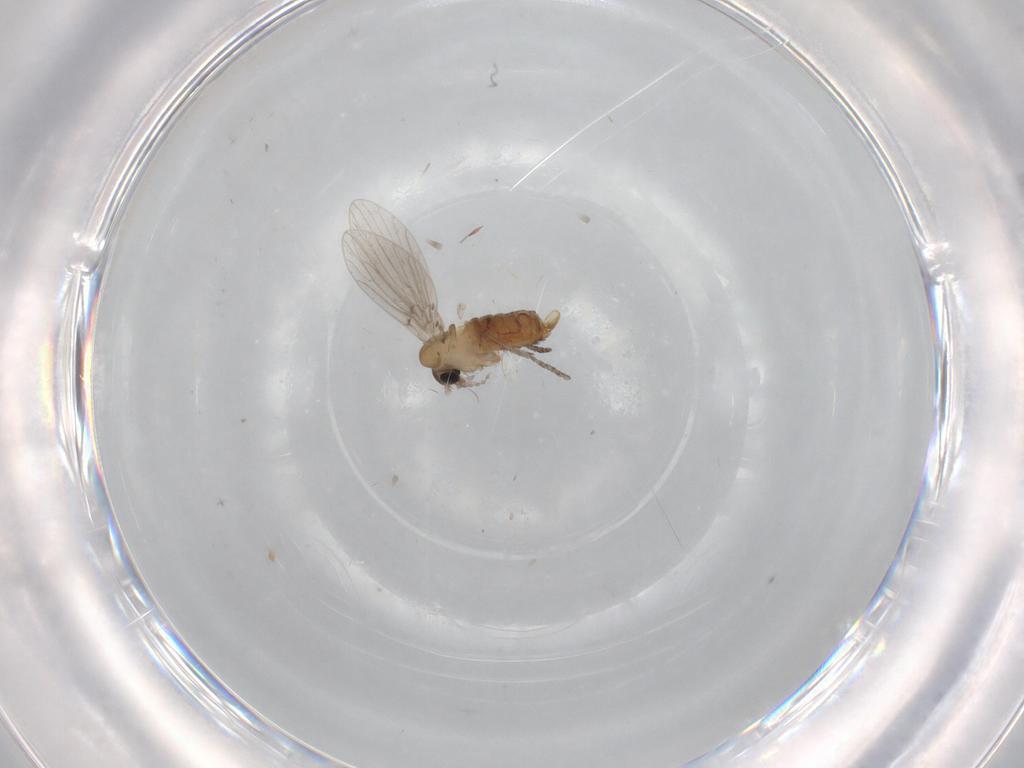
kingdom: Animalia
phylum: Arthropoda
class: Insecta
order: Diptera
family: Psychodidae
